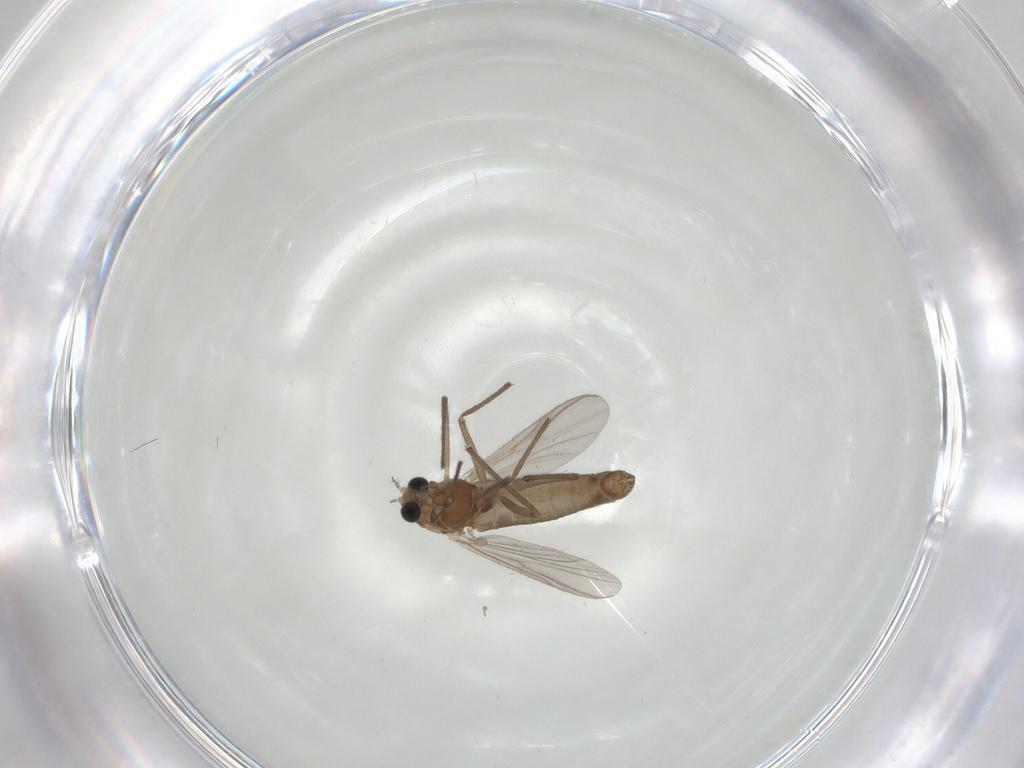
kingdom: Animalia
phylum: Arthropoda
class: Insecta
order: Diptera
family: Chironomidae
